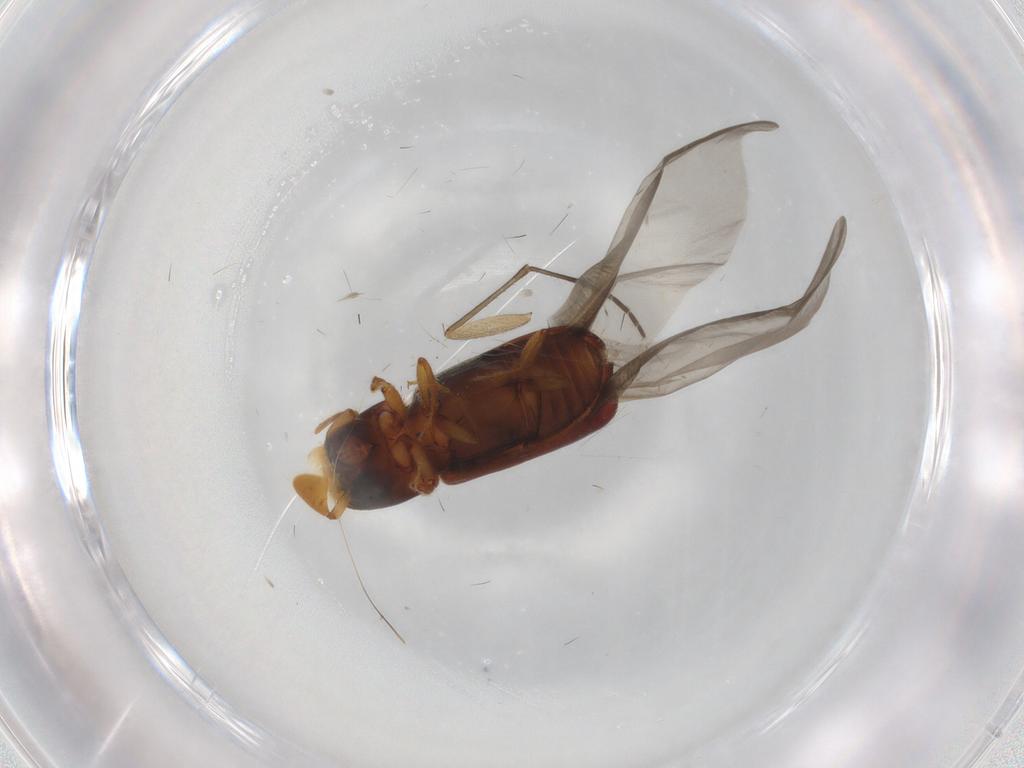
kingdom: Animalia
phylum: Arthropoda
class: Insecta
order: Coleoptera
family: Curculionidae
